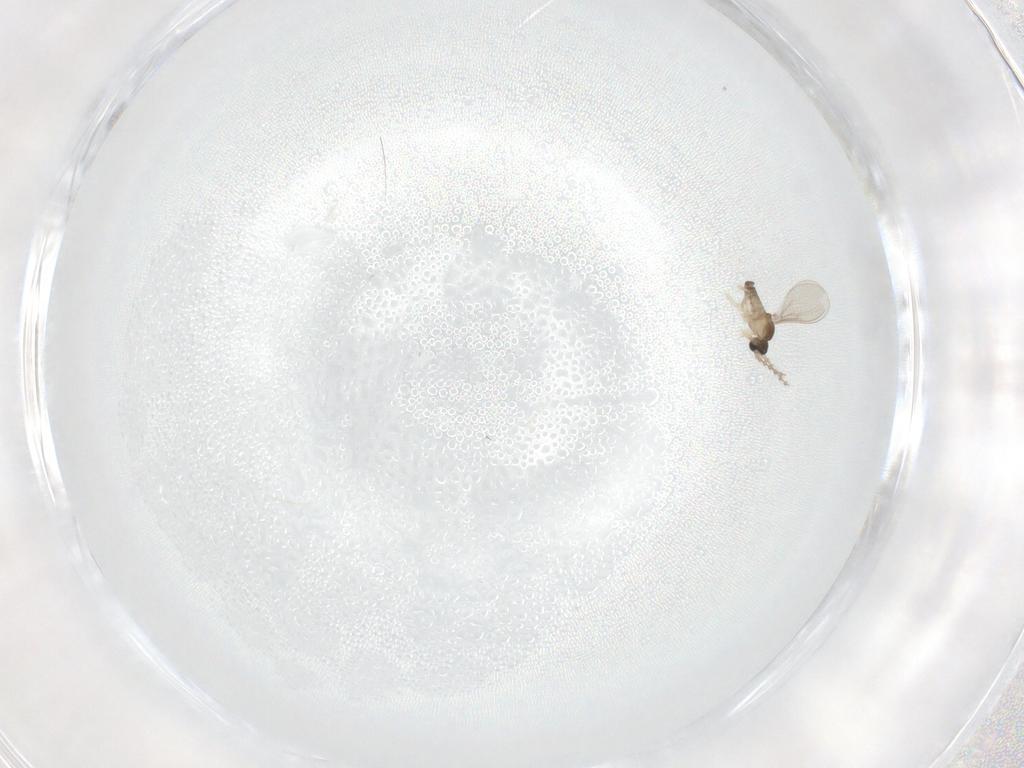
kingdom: Animalia
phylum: Arthropoda
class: Insecta
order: Diptera
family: Cecidomyiidae
